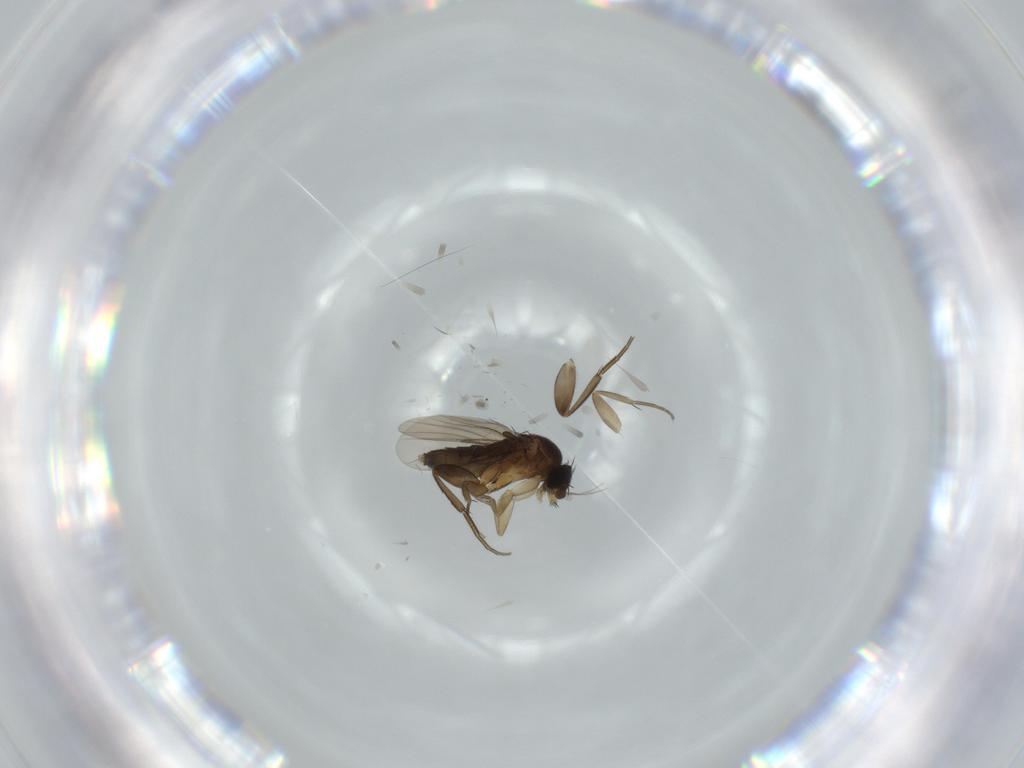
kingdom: Animalia
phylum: Arthropoda
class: Insecta
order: Diptera
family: Phoridae
